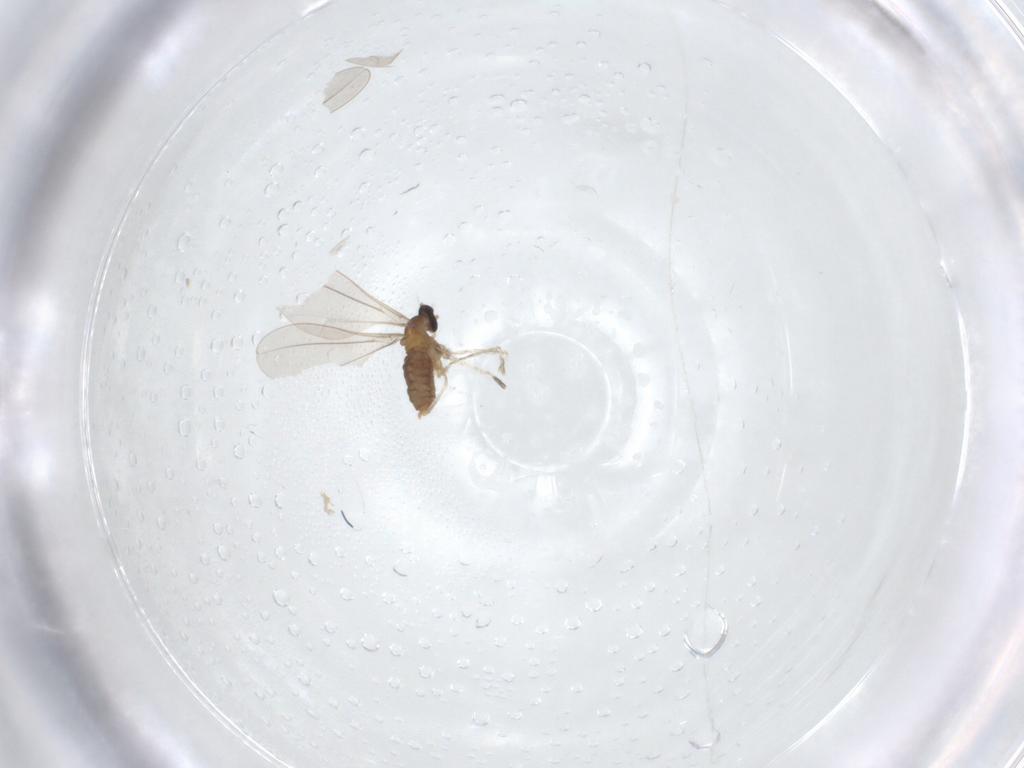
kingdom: Animalia
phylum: Arthropoda
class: Insecta
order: Diptera
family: Cecidomyiidae
